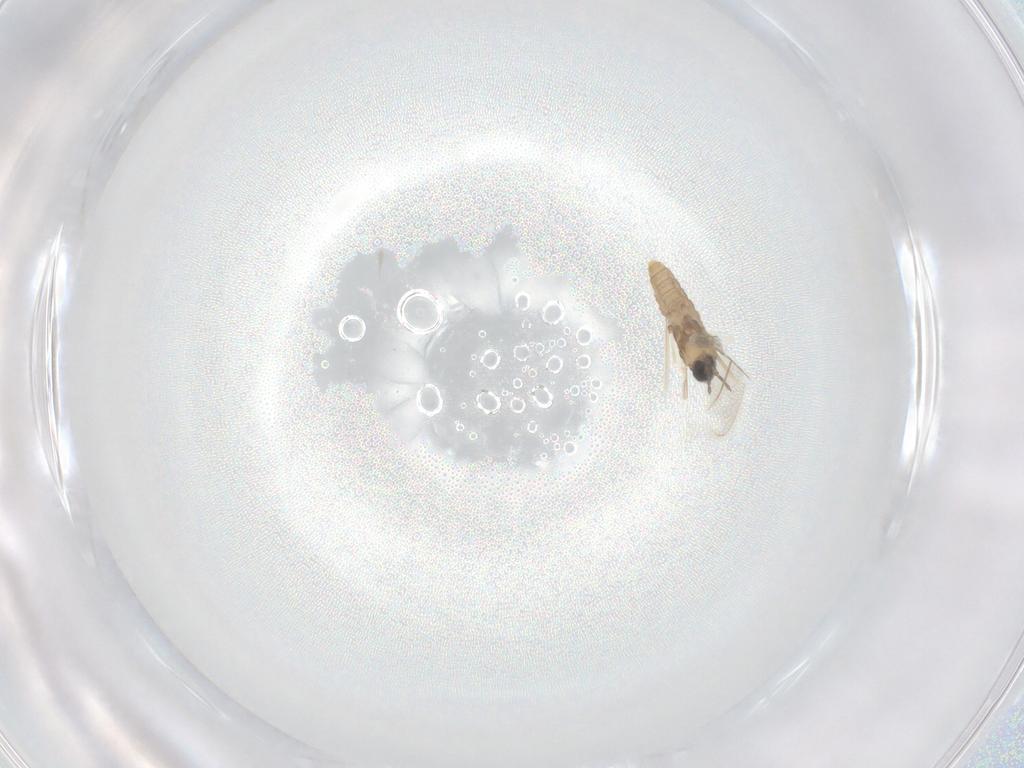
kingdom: Animalia
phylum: Arthropoda
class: Insecta
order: Diptera
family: Cecidomyiidae
